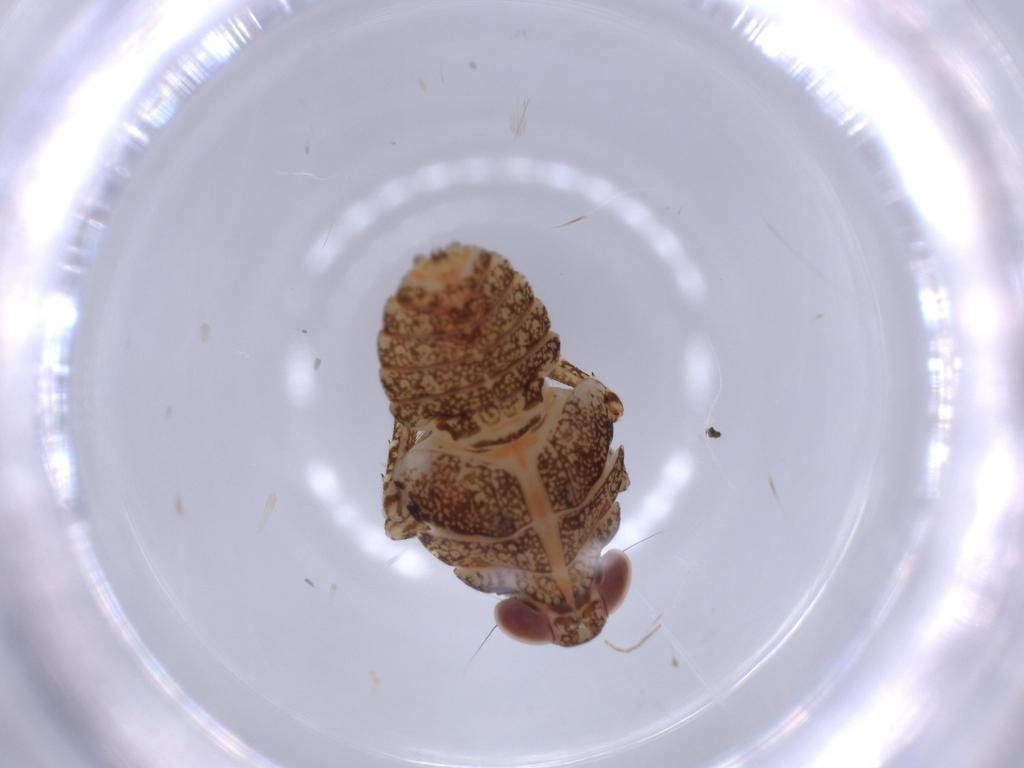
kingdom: Animalia
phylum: Arthropoda
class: Insecta
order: Hemiptera
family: Issidae
